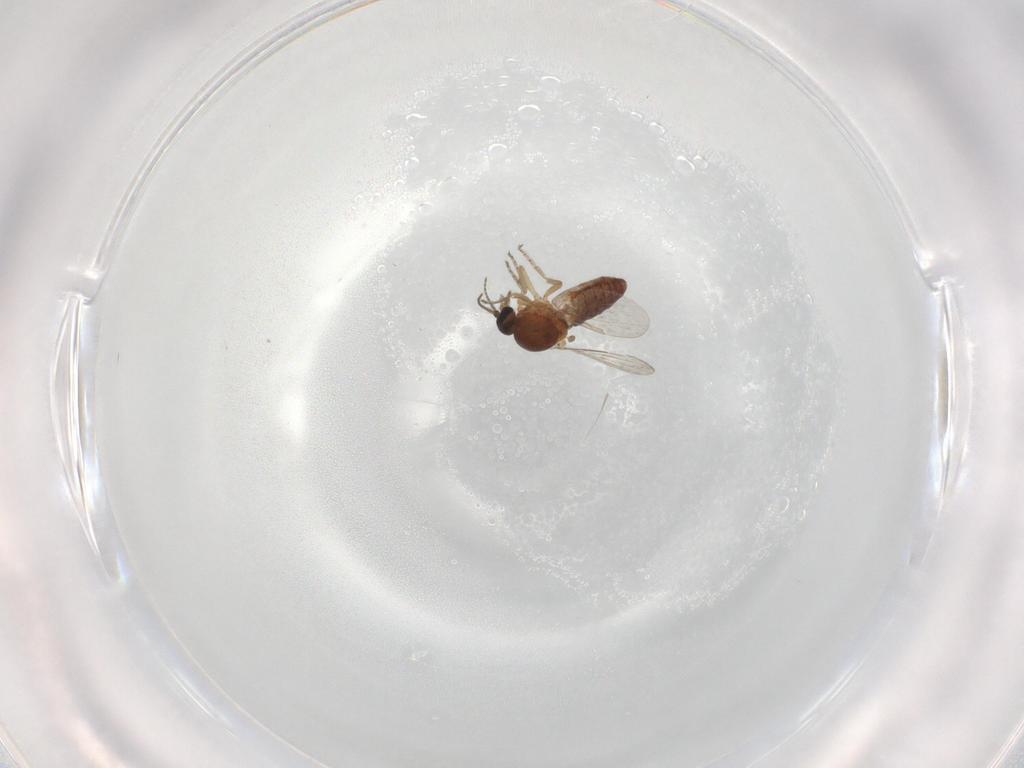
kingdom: Animalia
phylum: Arthropoda
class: Insecta
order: Diptera
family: Ceratopogonidae
